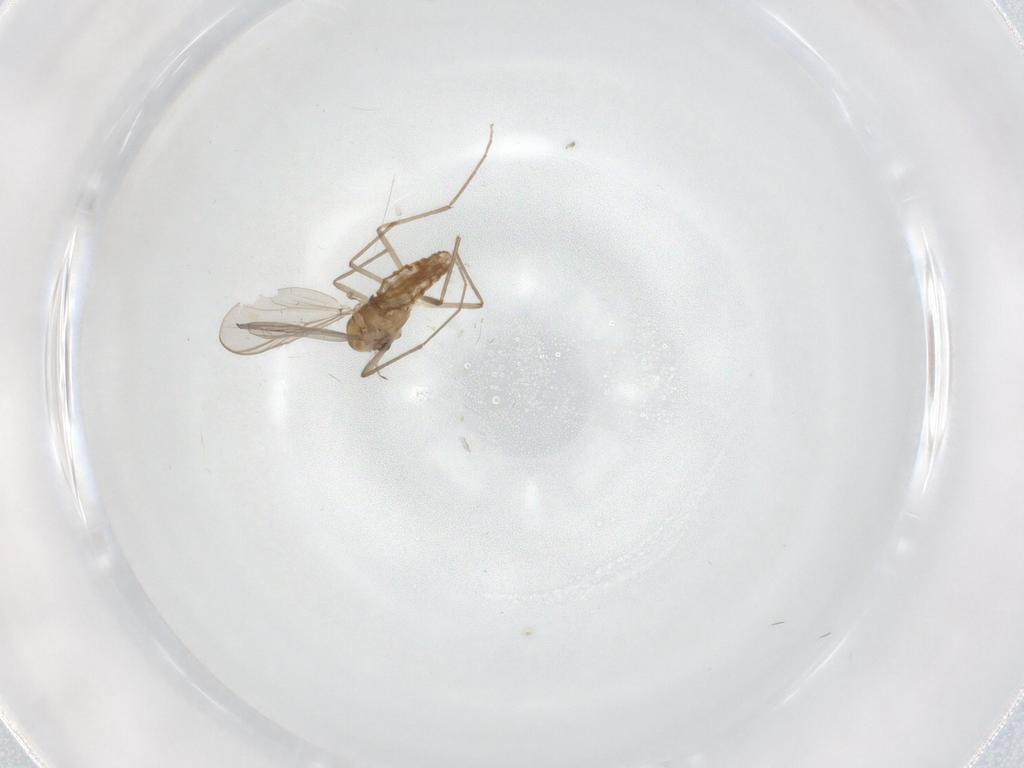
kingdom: Animalia
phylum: Arthropoda
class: Insecta
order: Diptera
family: Chironomidae
